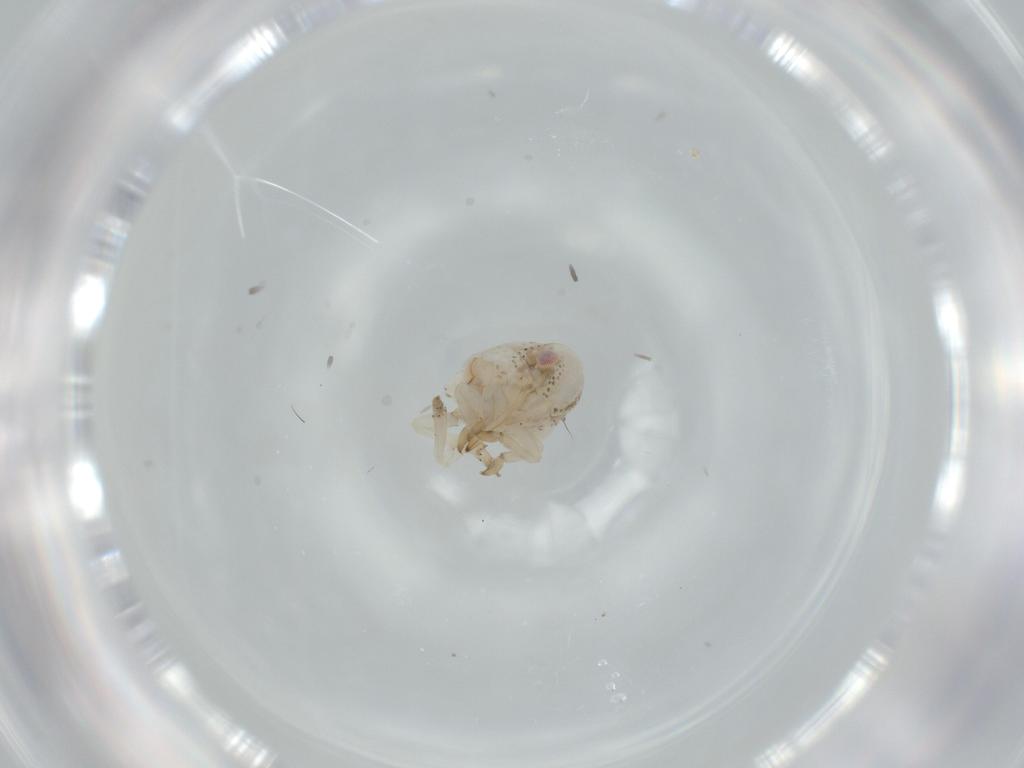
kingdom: Animalia
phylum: Arthropoda
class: Insecta
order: Hemiptera
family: Acanaloniidae
